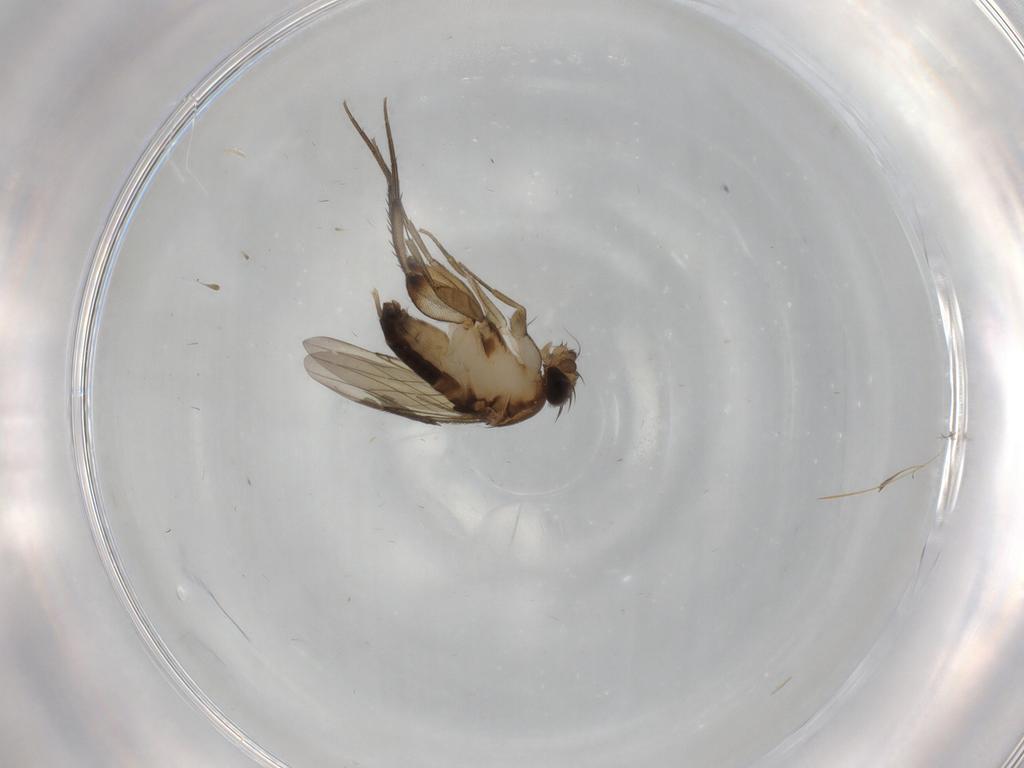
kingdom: Animalia
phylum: Arthropoda
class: Insecta
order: Diptera
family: Phoridae
